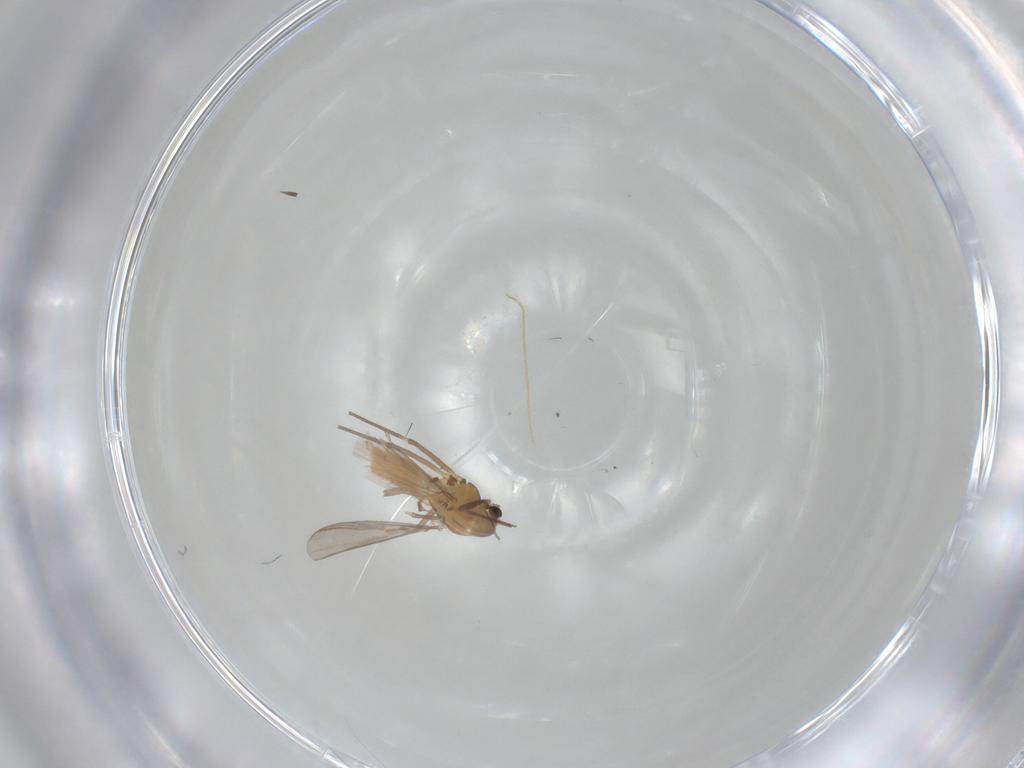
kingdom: Animalia
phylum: Arthropoda
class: Insecta
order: Diptera
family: Chironomidae
